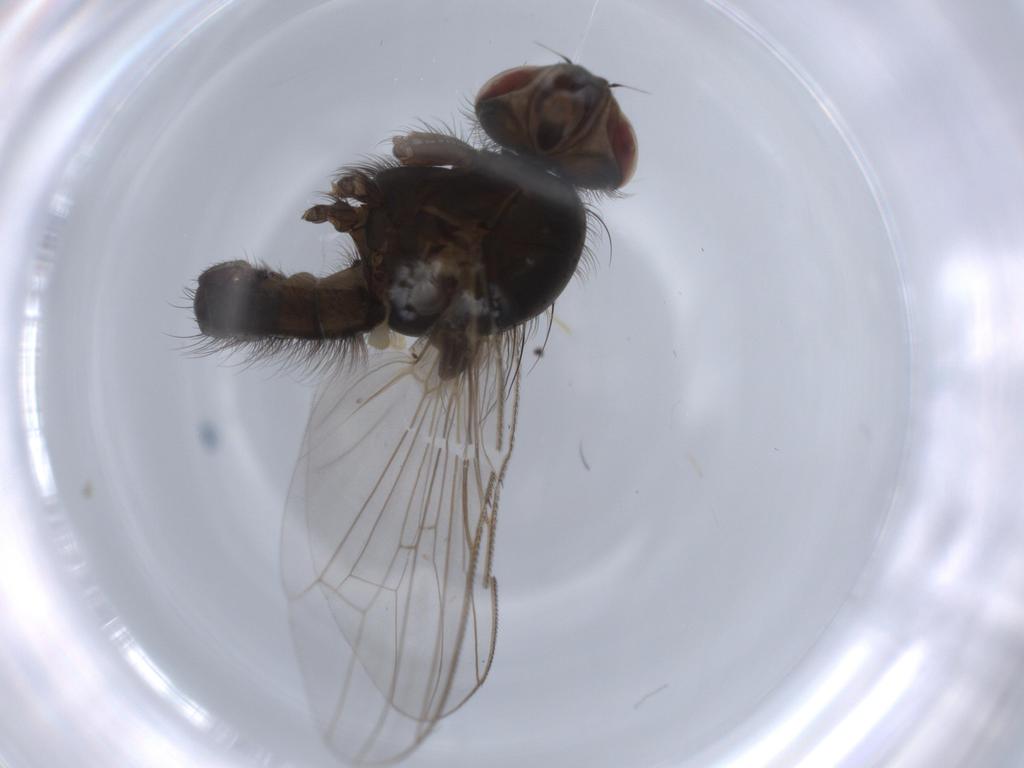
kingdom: Animalia
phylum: Arthropoda
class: Insecta
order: Diptera
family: Anthomyiidae
